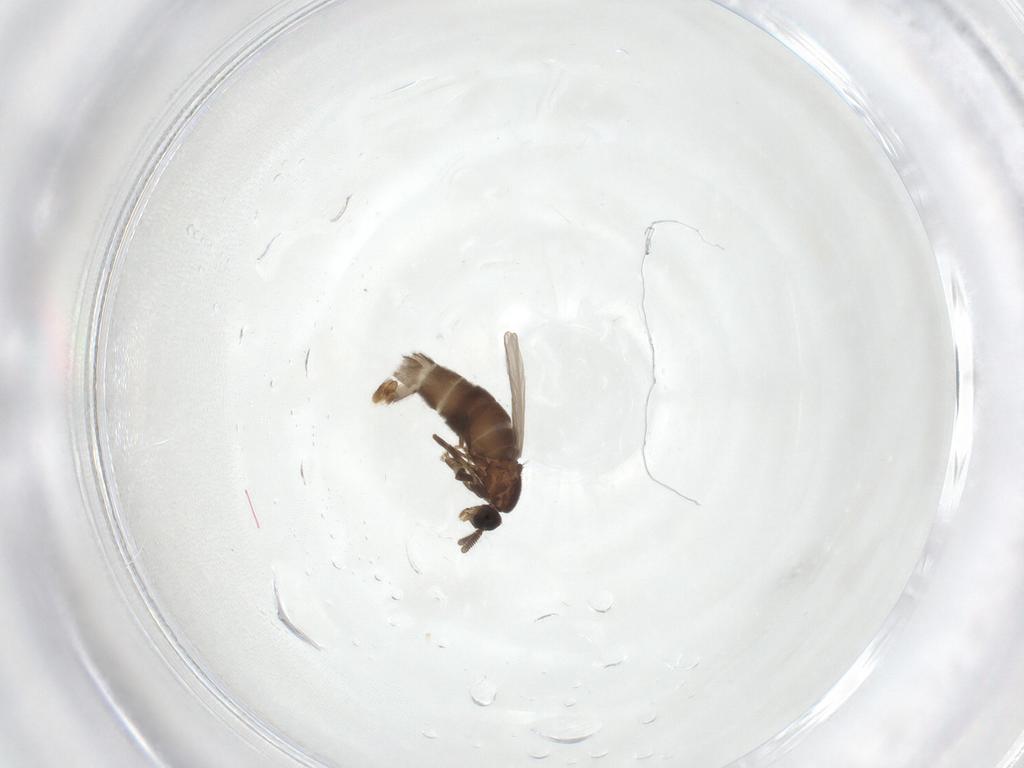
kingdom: Animalia
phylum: Arthropoda
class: Insecta
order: Diptera
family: Scatopsidae
